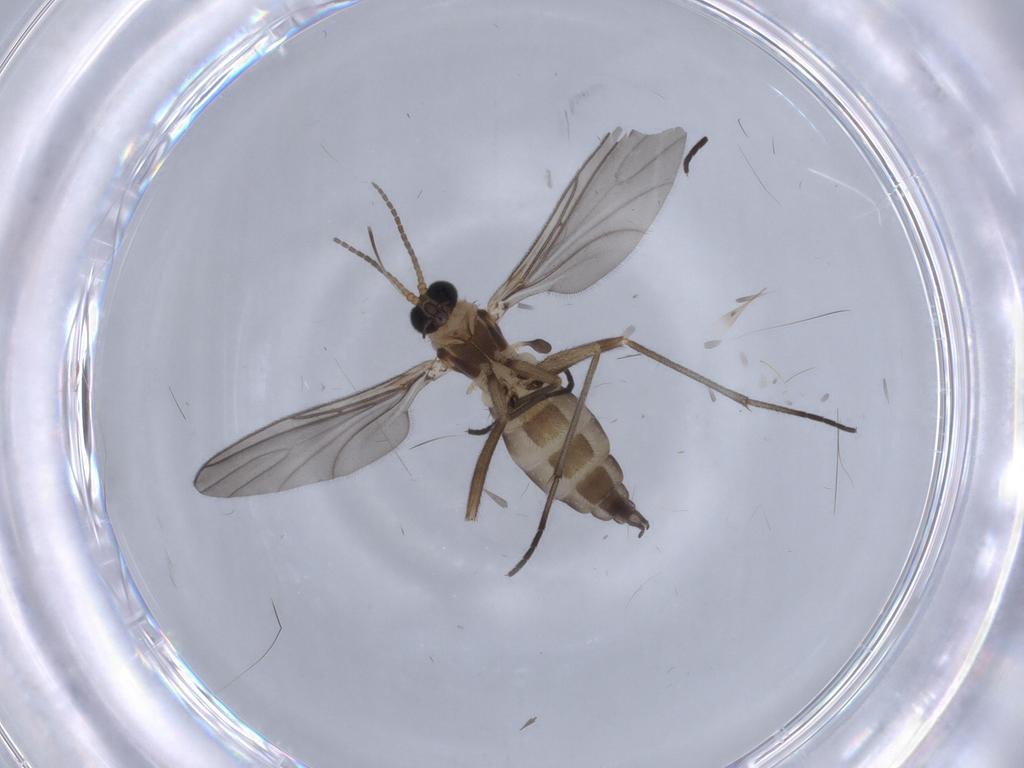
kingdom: Animalia
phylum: Arthropoda
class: Insecta
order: Diptera
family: Sciaridae
